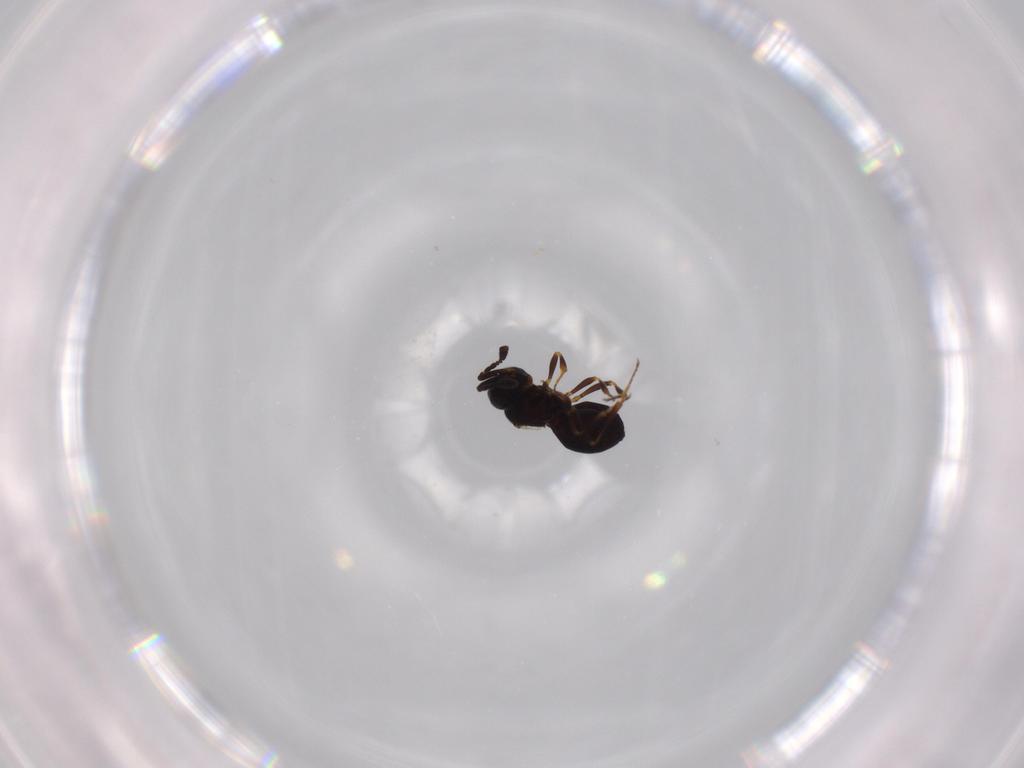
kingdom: Animalia
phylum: Arthropoda
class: Insecta
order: Hymenoptera
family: Scelionidae
